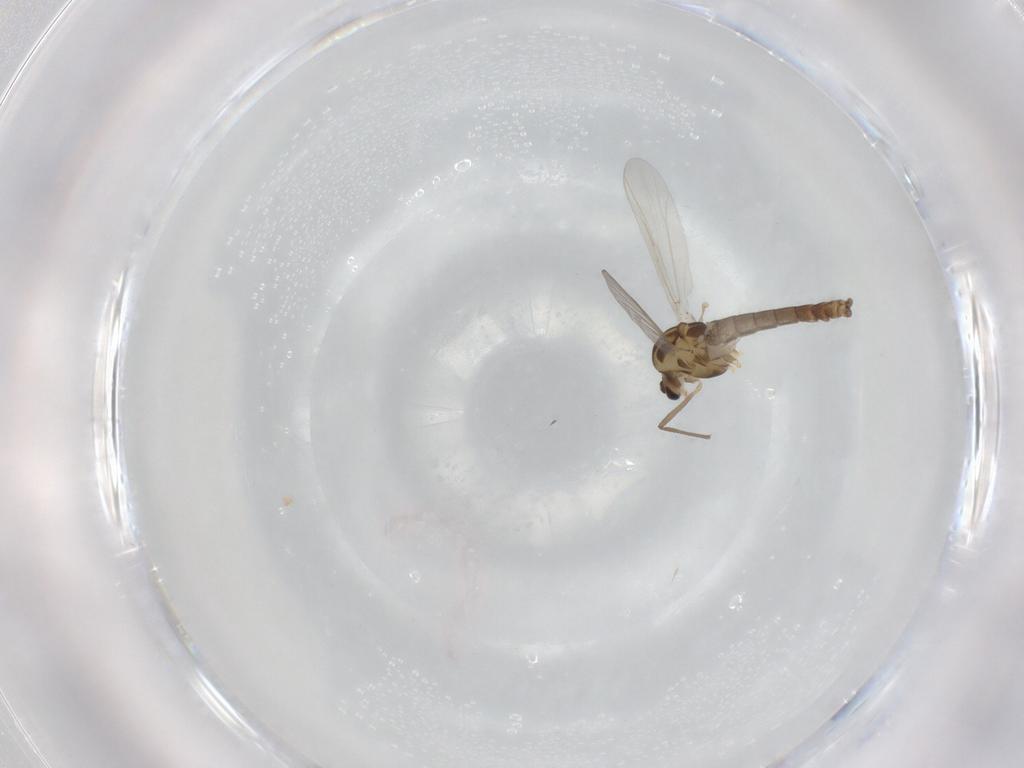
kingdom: Animalia
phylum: Arthropoda
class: Insecta
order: Diptera
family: Chironomidae
